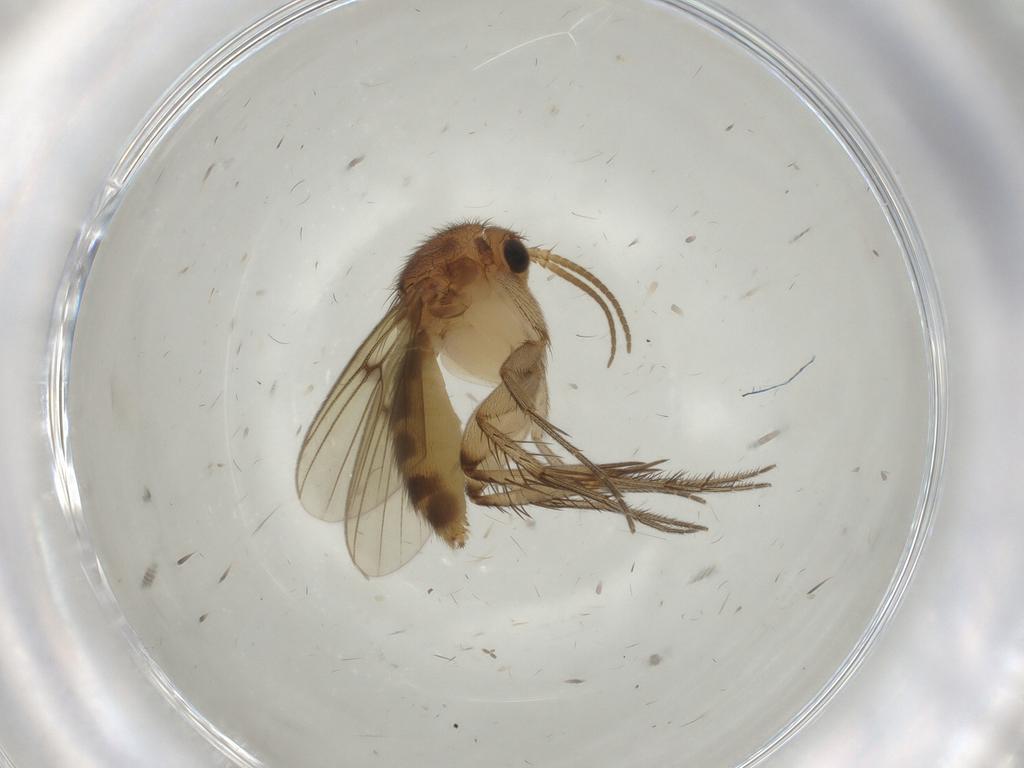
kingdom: Animalia
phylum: Arthropoda
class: Insecta
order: Diptera
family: Mycetophilidae
